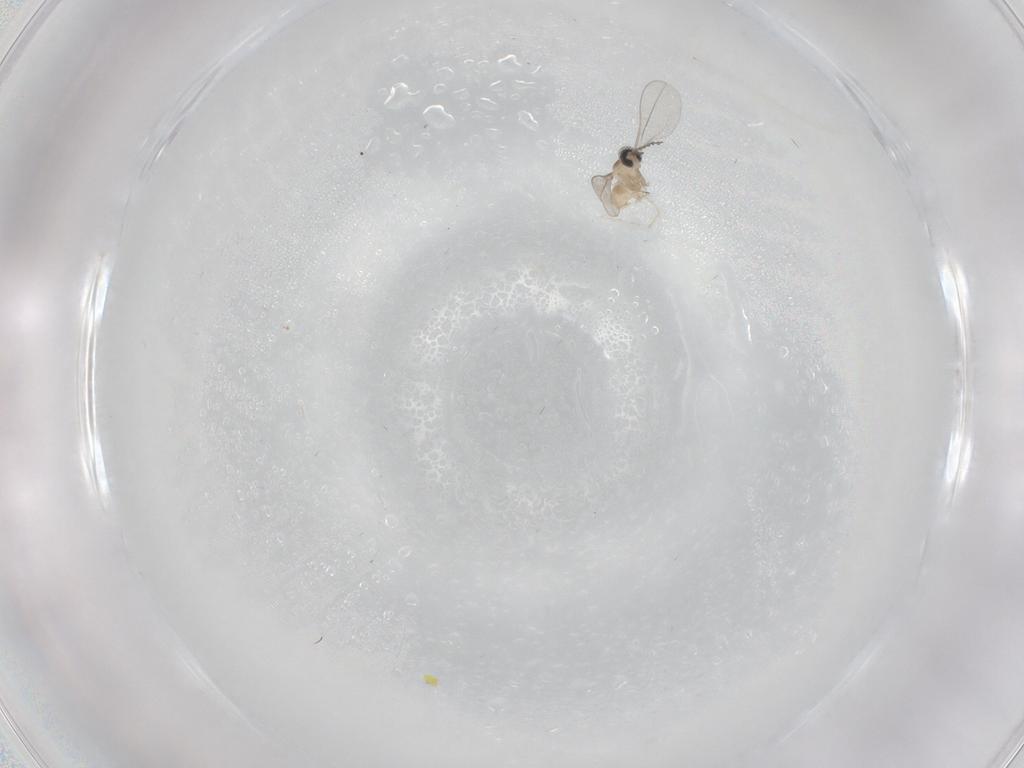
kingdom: Animalia
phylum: Arthropoda
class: Insecta
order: Diptera
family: Cecidomyiidae
